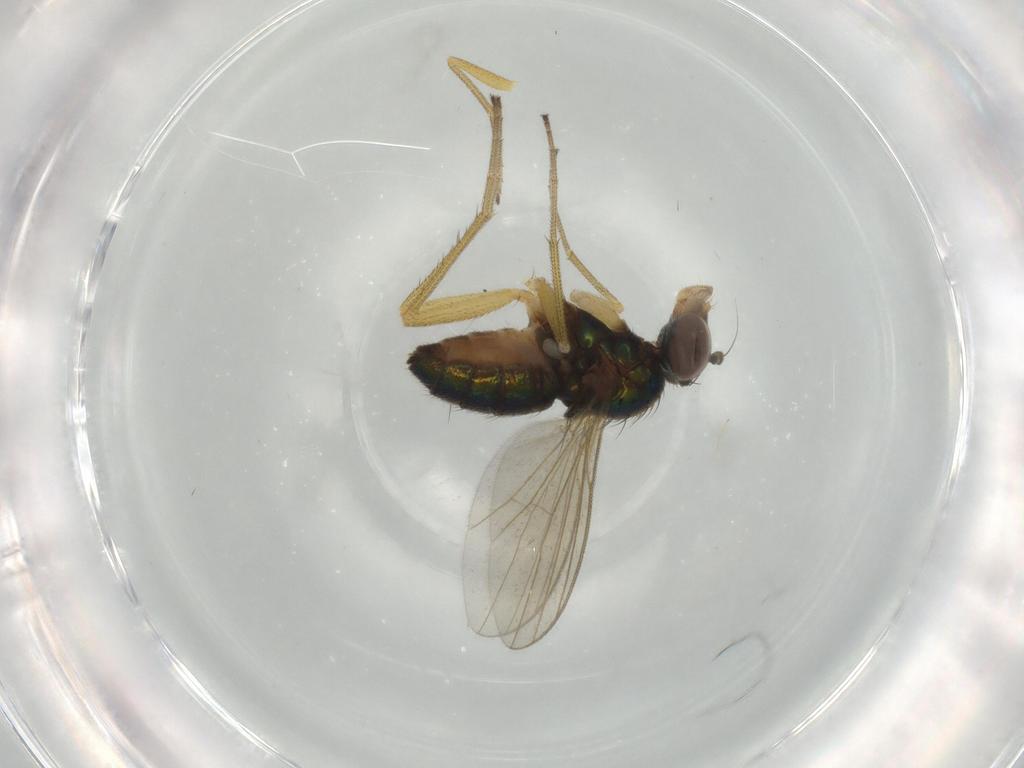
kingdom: Animalia
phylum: Arthropoda
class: Insecta
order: Diptera
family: Dolichopodidae
